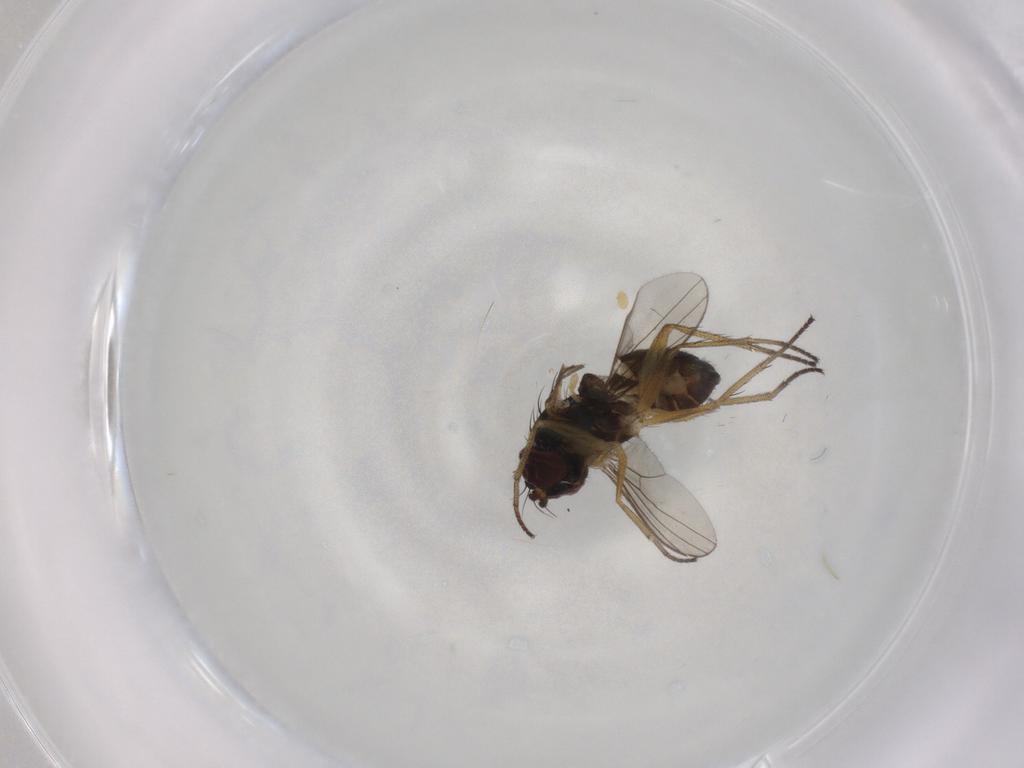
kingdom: Animalia
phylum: Arthropoda
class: Insecta
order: Diptera
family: Dolichopodidae
